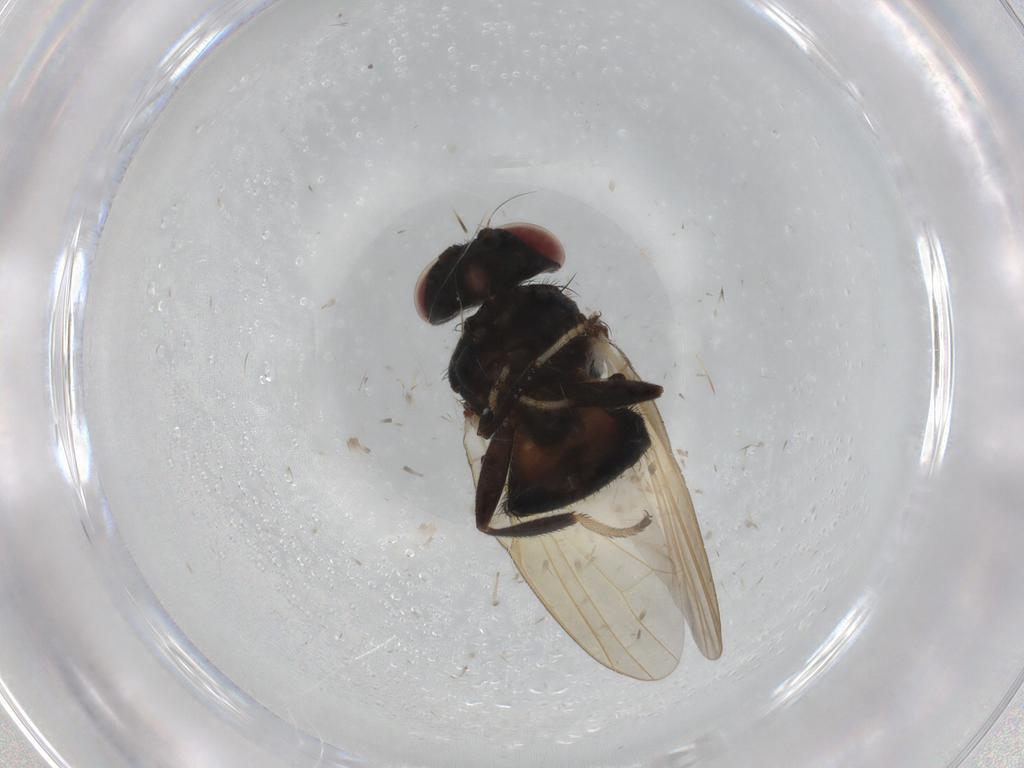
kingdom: Animalia
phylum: Arthropoda
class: Insecta
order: Diptera
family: Lonchaeidae
